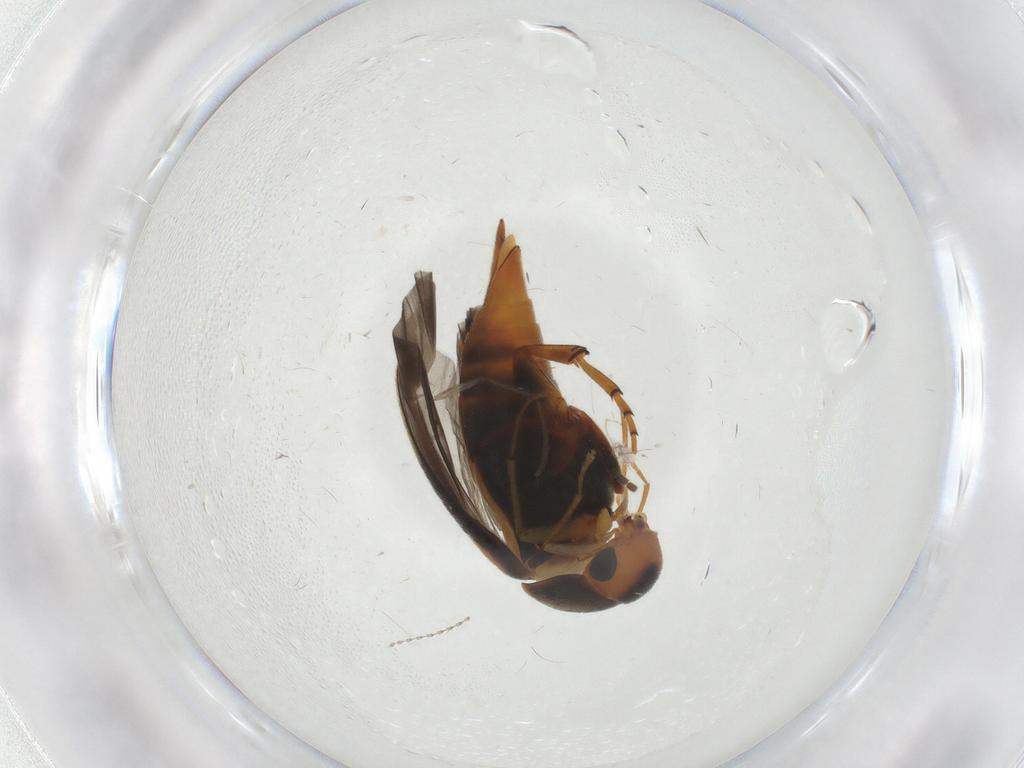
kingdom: Animalia
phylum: Arthropoda
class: Insecta
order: Coleoptera
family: Mordellidae
